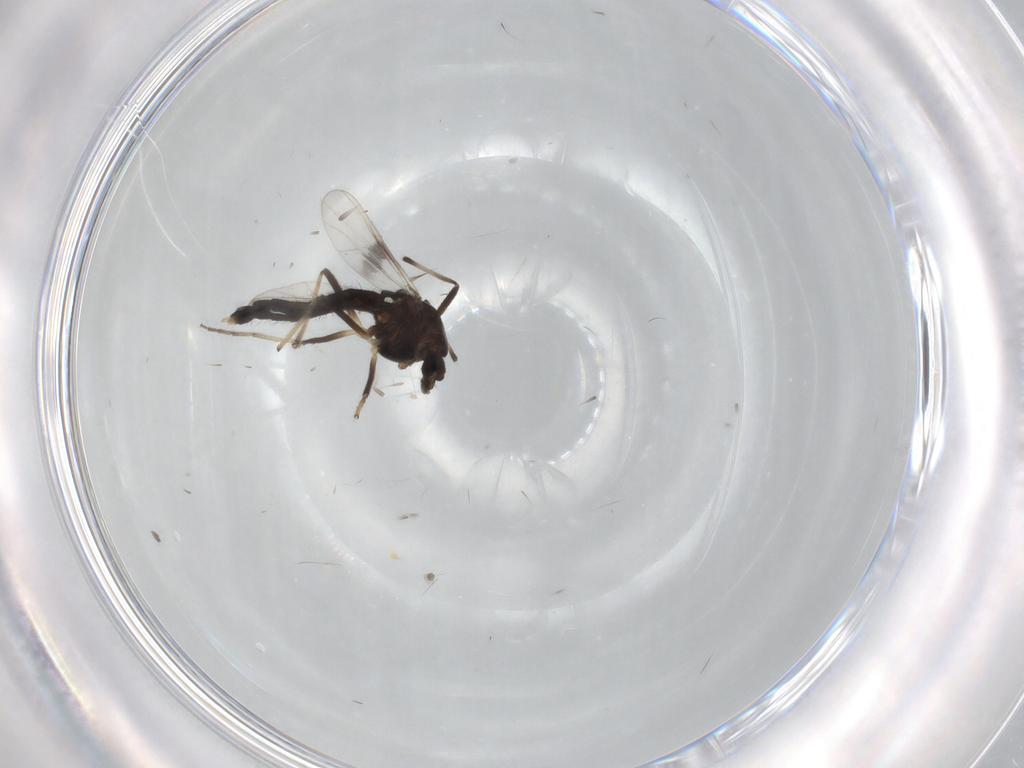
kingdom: Animalia
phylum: Arthropoda
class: Insecta
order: Diptera
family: Chironomidae
